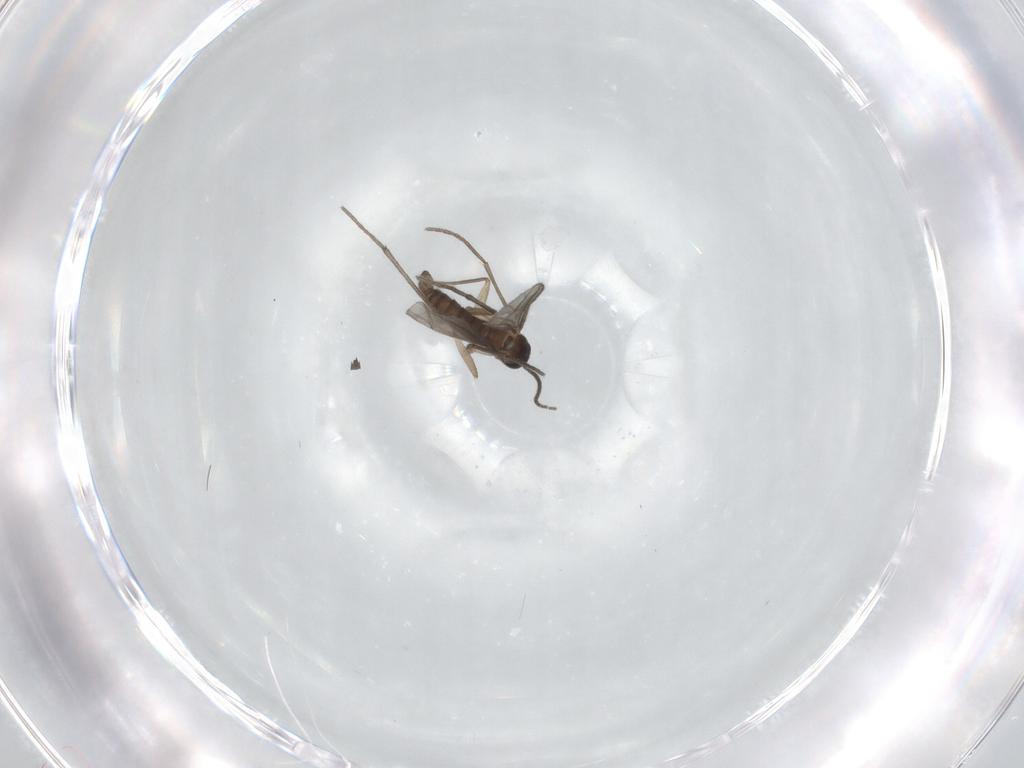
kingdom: Animalia
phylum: Arthropoda
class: Insecta
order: Diptera
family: Sciaridae
